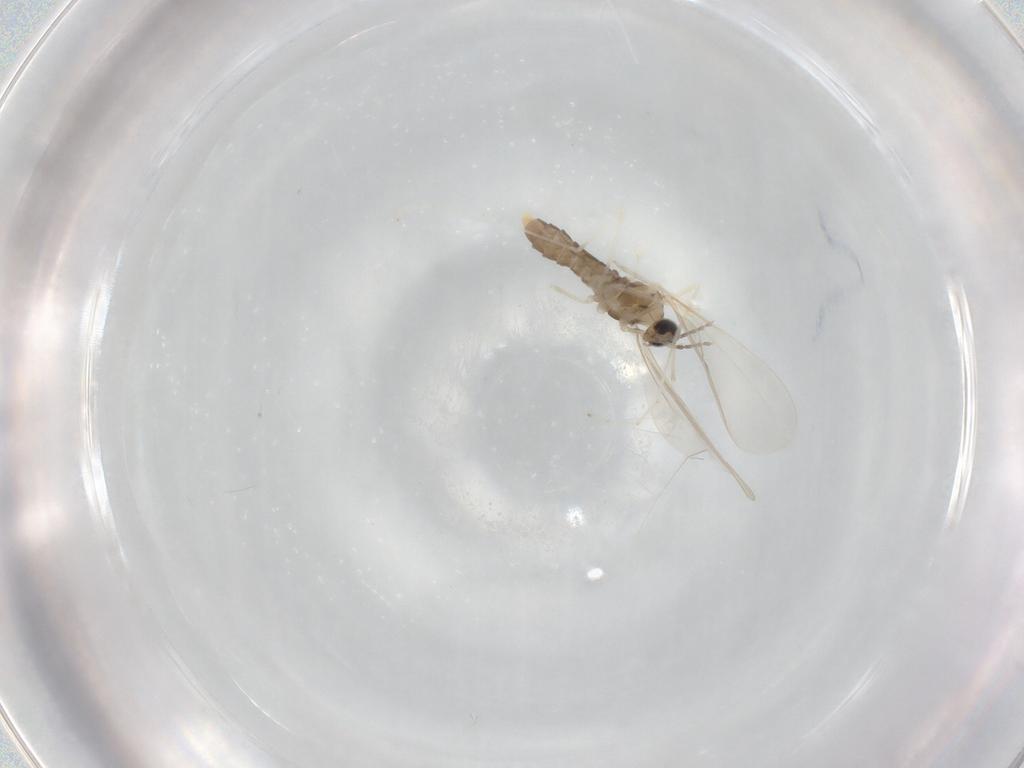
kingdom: Animalia
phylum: Arthropoda
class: Insecta
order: Diptera
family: Cecidomyiidae
